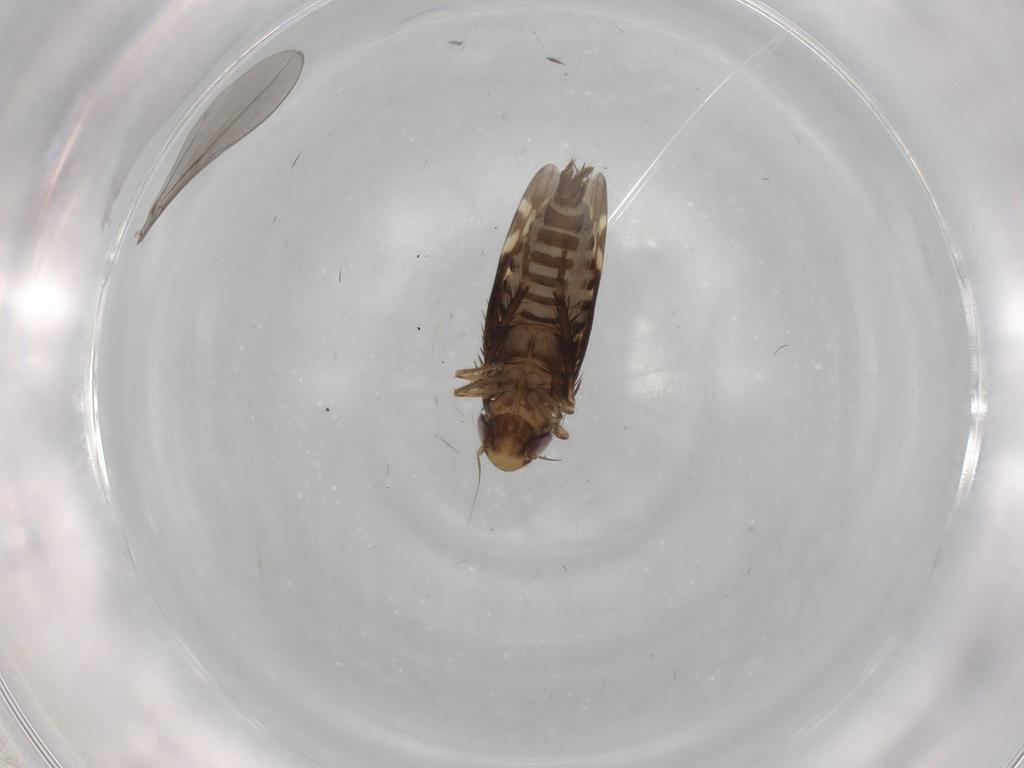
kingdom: Animalia
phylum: Arthropoda
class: Insecta
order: Hemiptera
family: Cicadellidae
